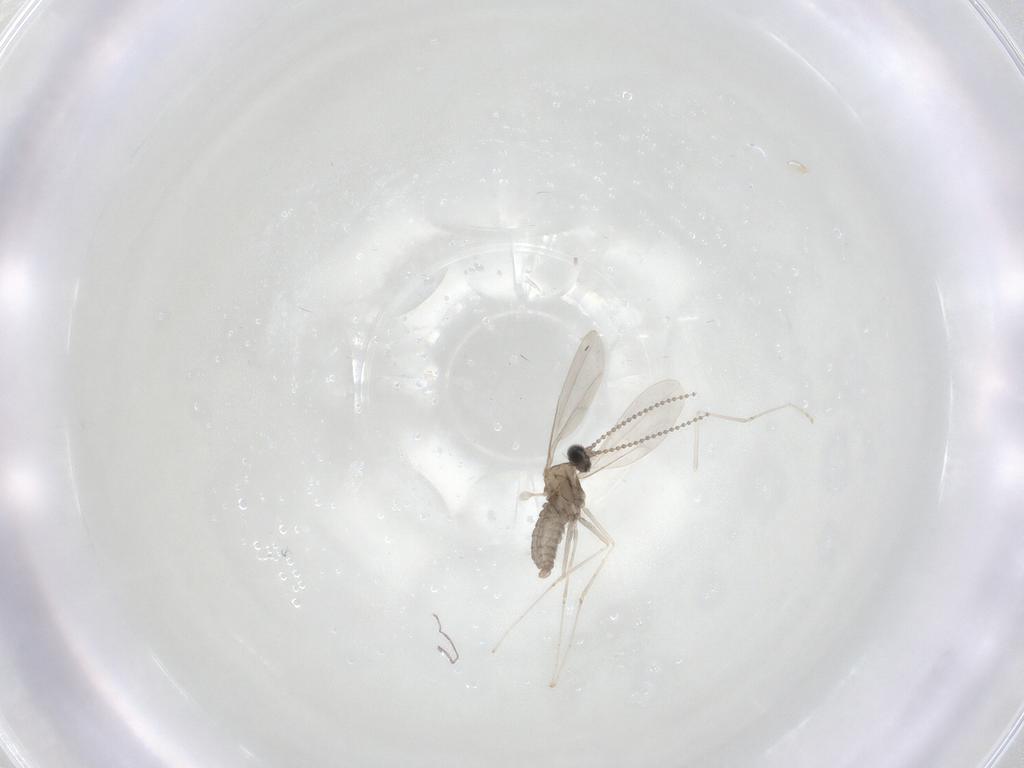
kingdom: Animalia
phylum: Arthropoda
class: Insecta
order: Diptera
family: Cecidomyiidae
